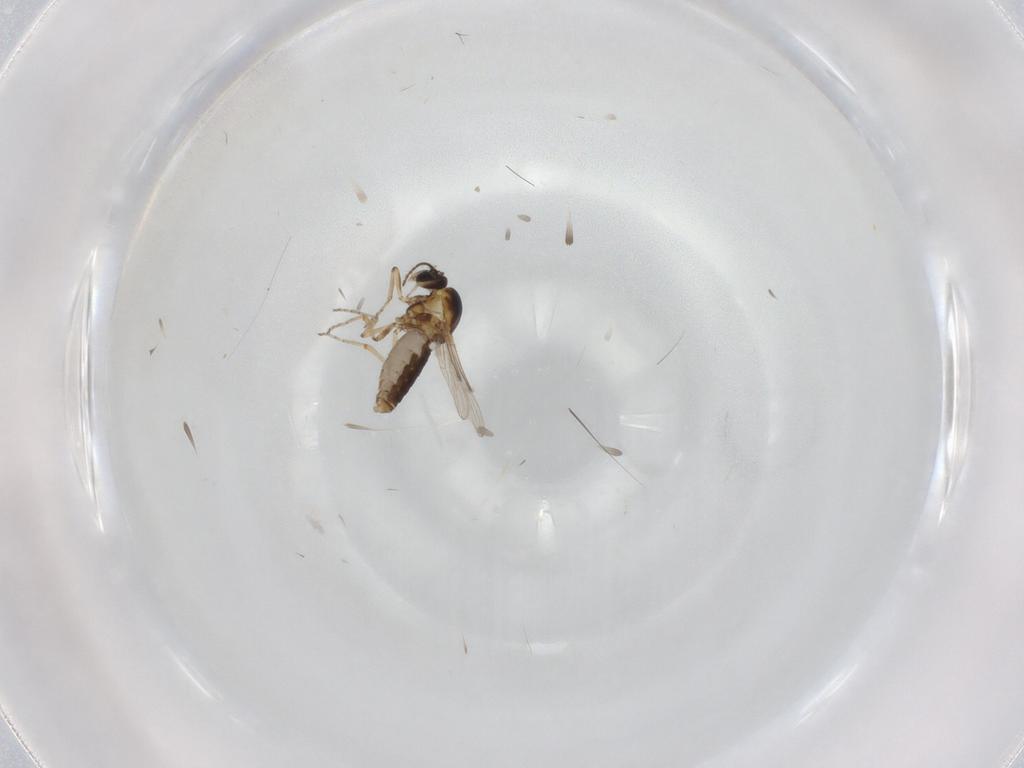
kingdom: Animalia
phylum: Arthropoda
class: Insecta
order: Diptera
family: Ceratopogonidae
